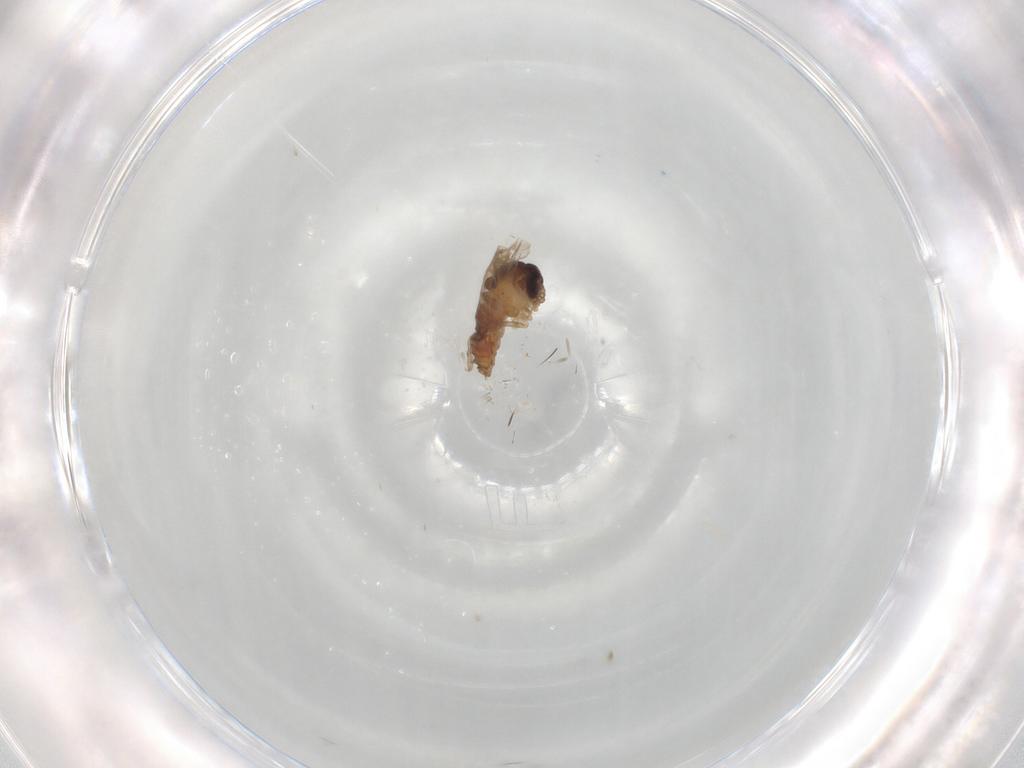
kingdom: Animalia
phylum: Arthropoda
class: Insecta
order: Diptera
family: Psychodidae
